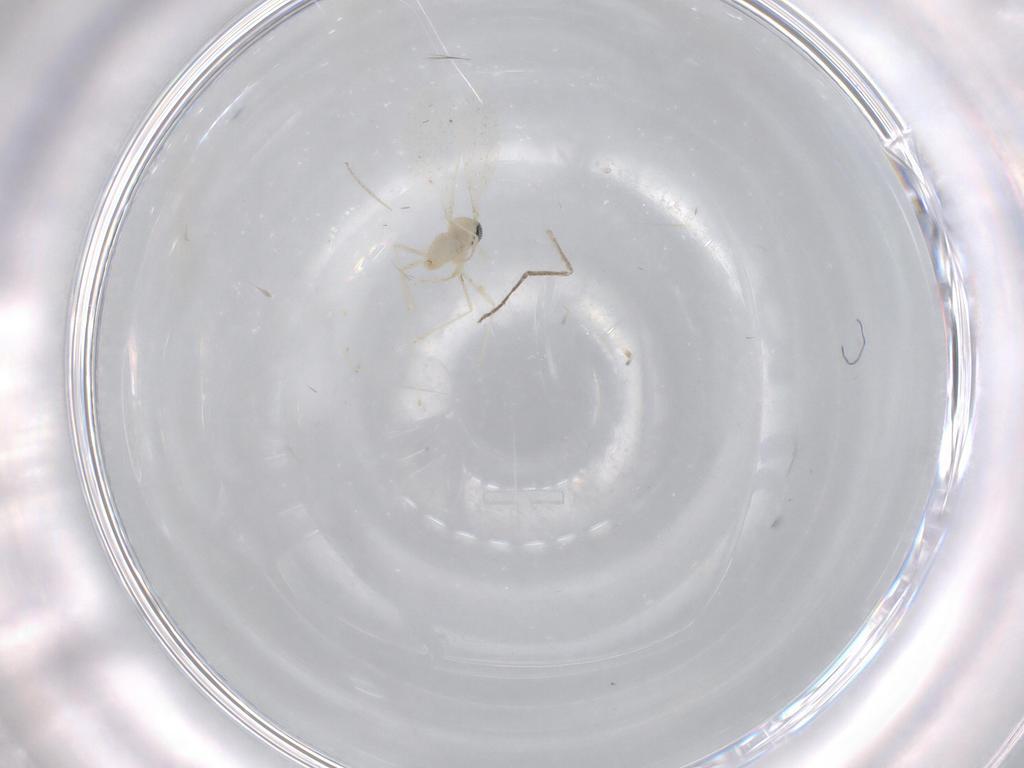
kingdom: Animalia
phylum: Arthropoda
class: Insecta
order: Diptera
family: Cecidomyiidae
